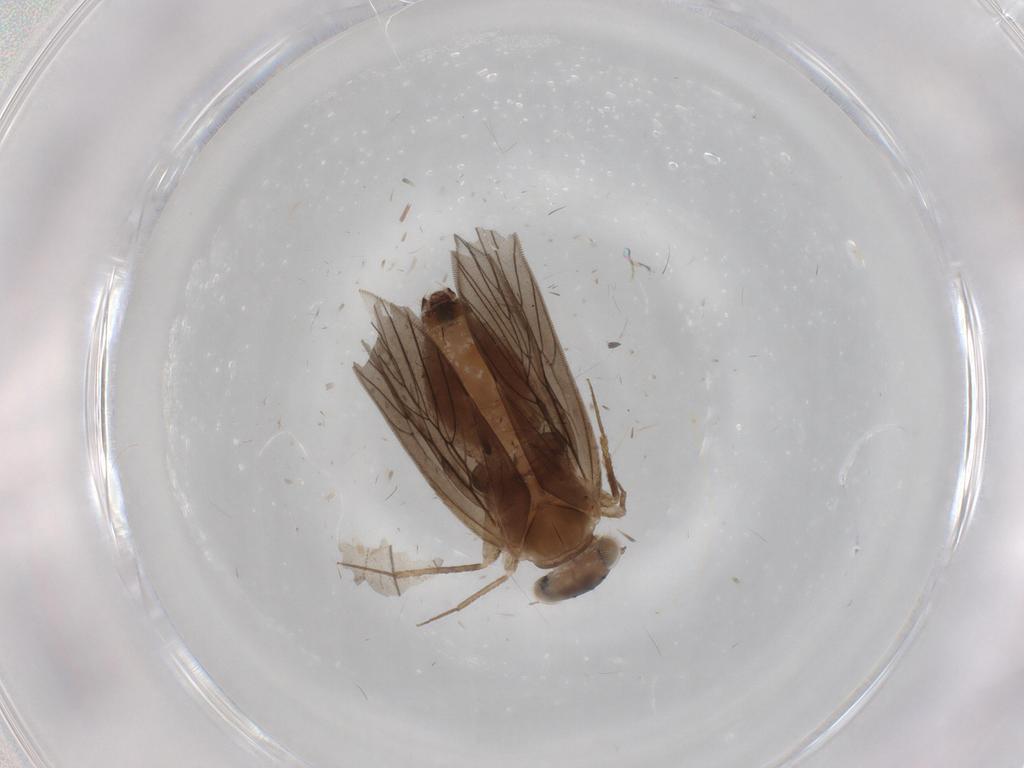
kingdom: Animalia
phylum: Arthropoda
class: Insecta
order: Psocodea
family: Lepidopsocidae
